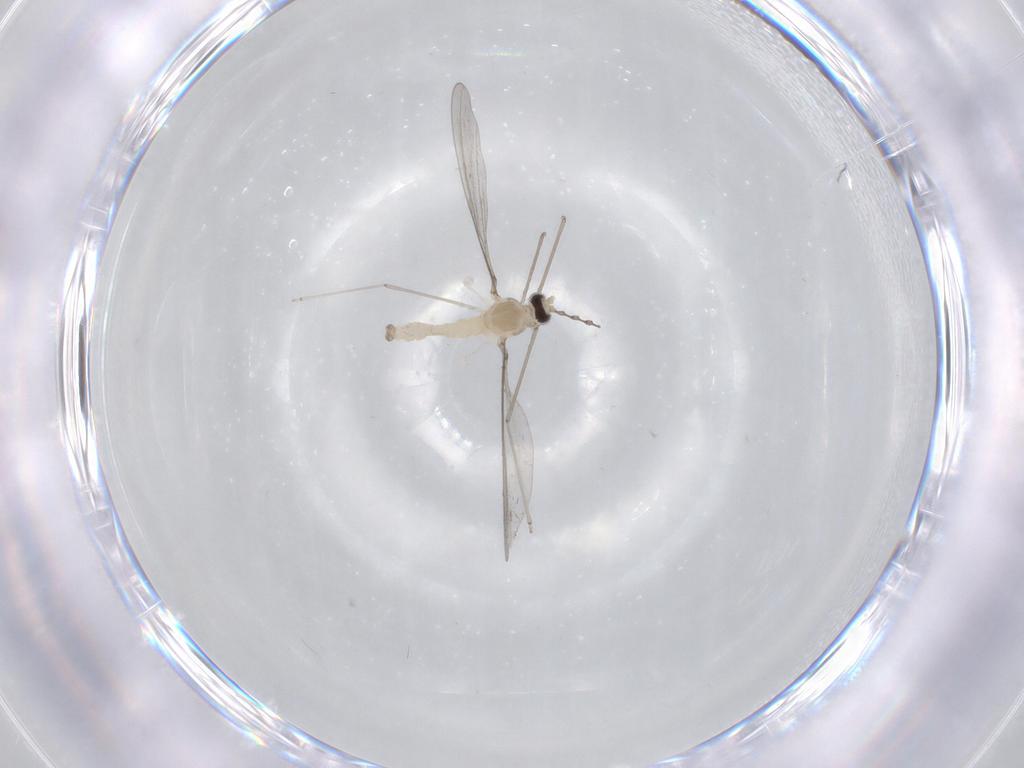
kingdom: Animalia
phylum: Arthropoda
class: Insecta
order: Diptera
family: Cecidomyiidae
